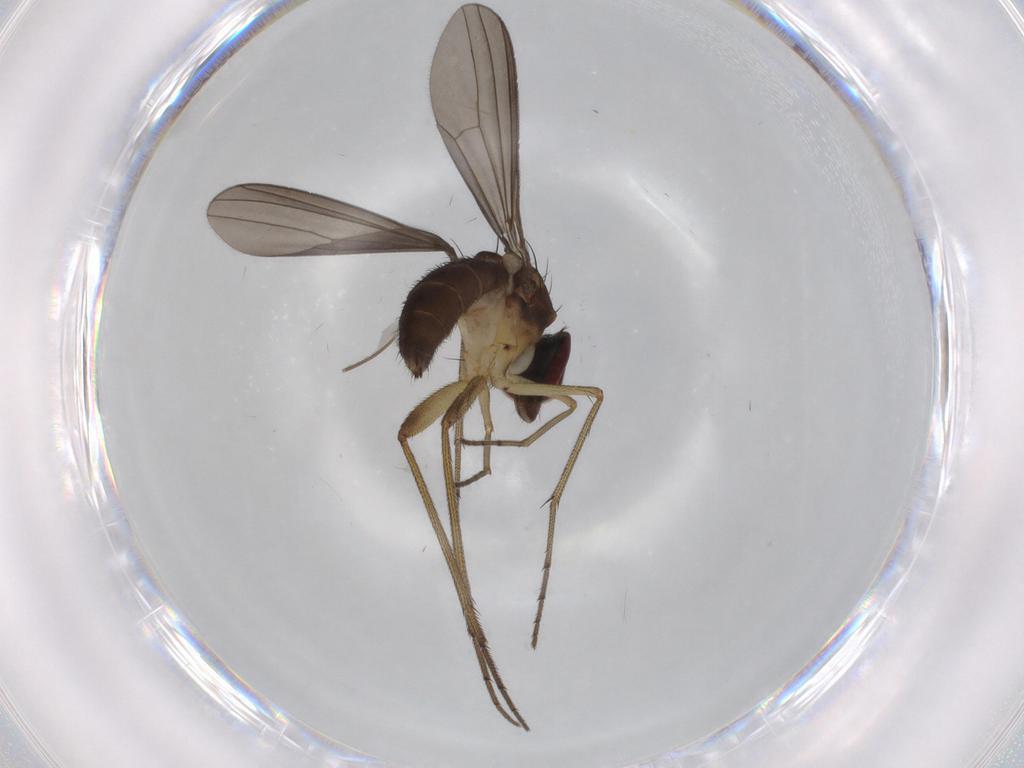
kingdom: Animalia
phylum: Arthropoda
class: Insecta
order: Diptera
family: Dolichopodidae
